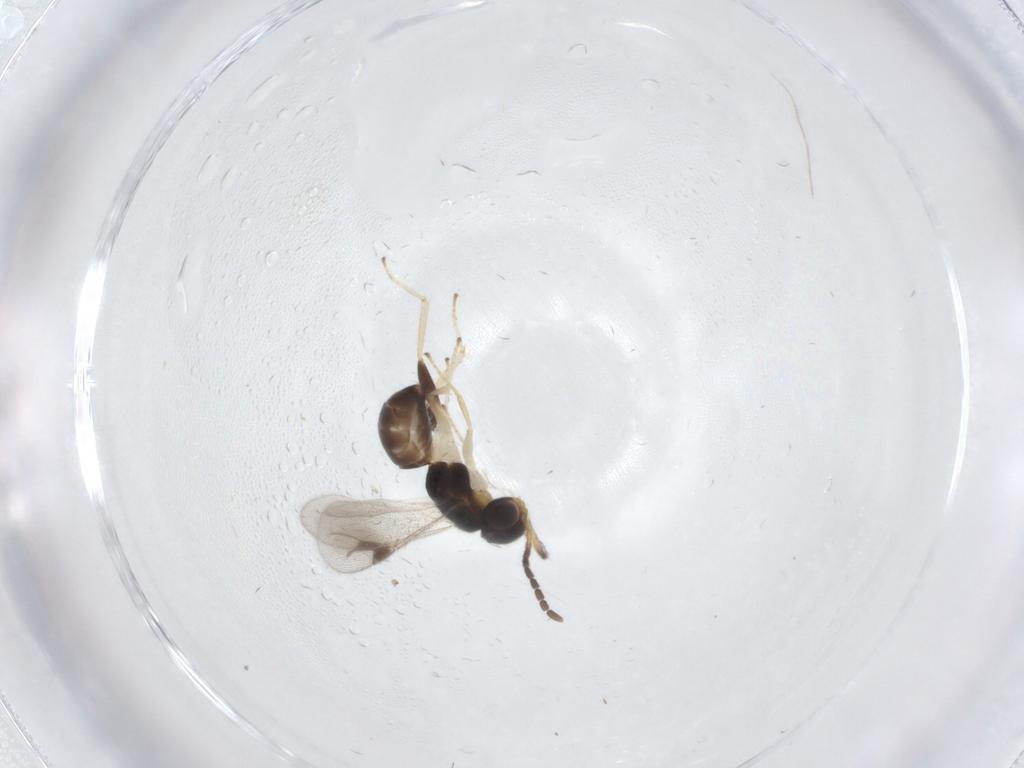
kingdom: Animalia
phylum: Arthropoda
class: Insecta
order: Hymenoptera
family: Dryinidae
